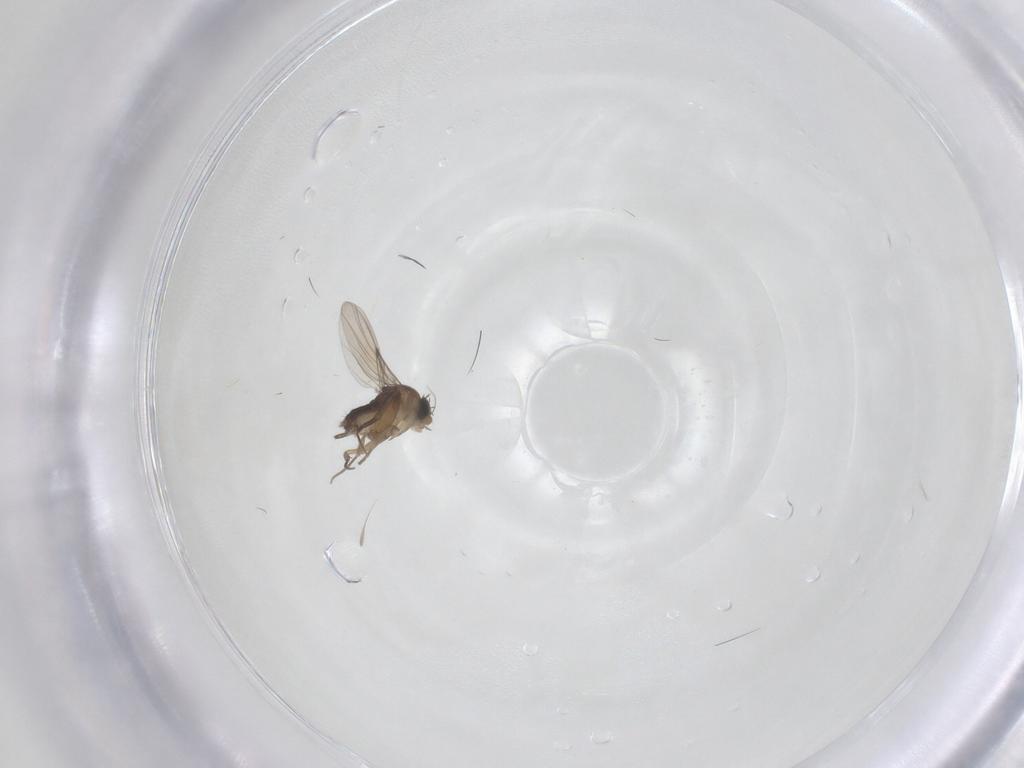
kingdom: Animalia
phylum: Arthropoda
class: Insecta
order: Diptera
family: Phoridae
